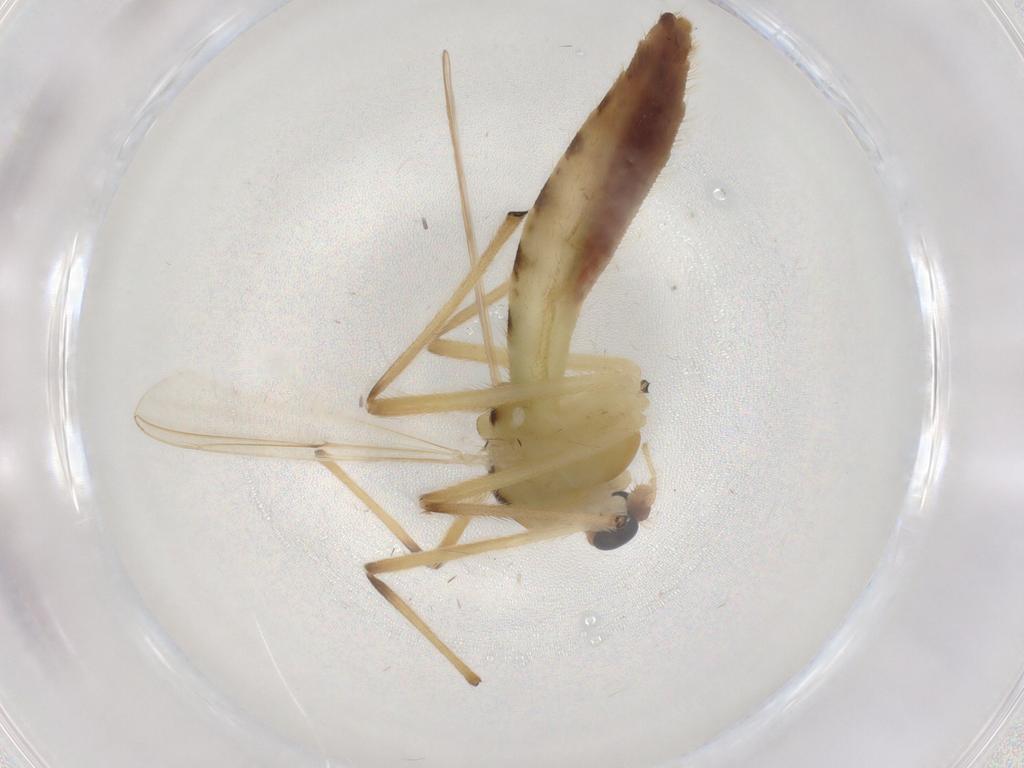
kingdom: Animalia
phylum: Arthropoda
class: Insecta
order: Diptera
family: Chironomidae
